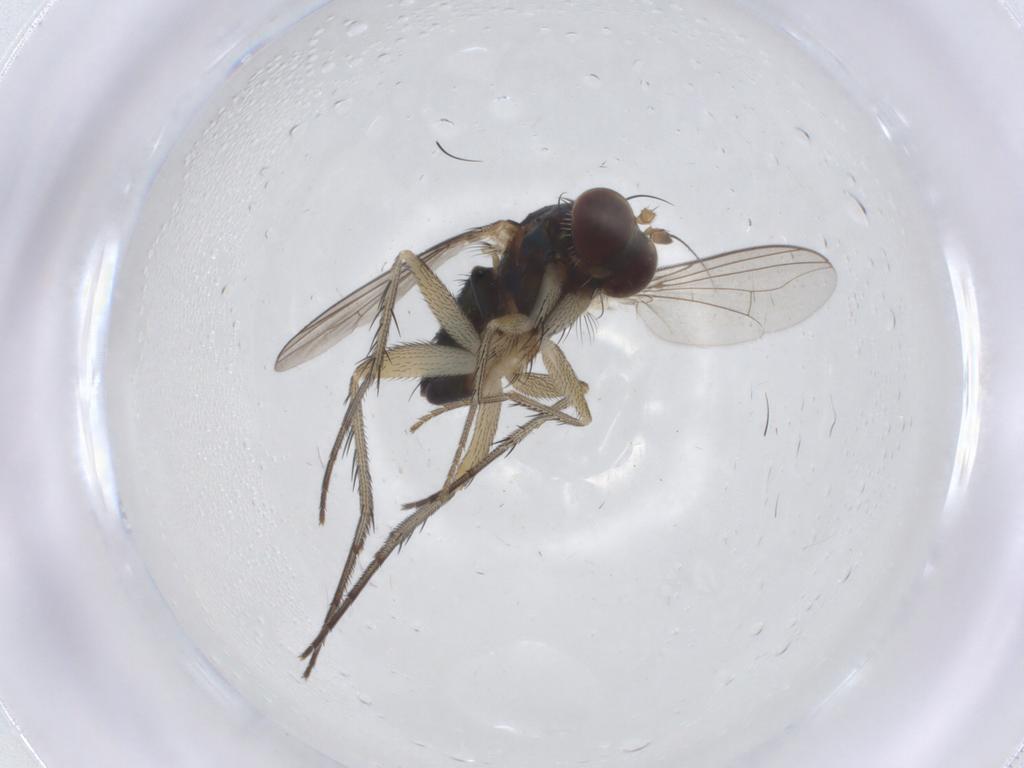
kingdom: Animalia
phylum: Arthropoda
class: Insecta
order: Diptera
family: Dolichopodidae
